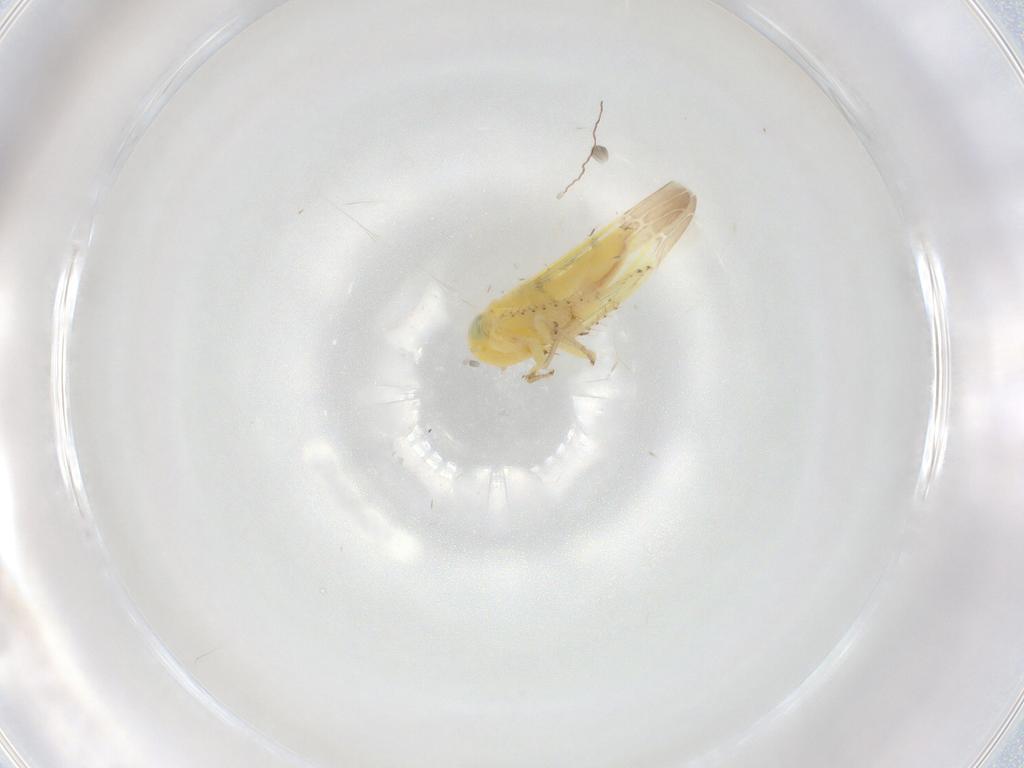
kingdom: Animalia
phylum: Arthropoda
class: Insecta
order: Hemiptera
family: Cicadellidae
